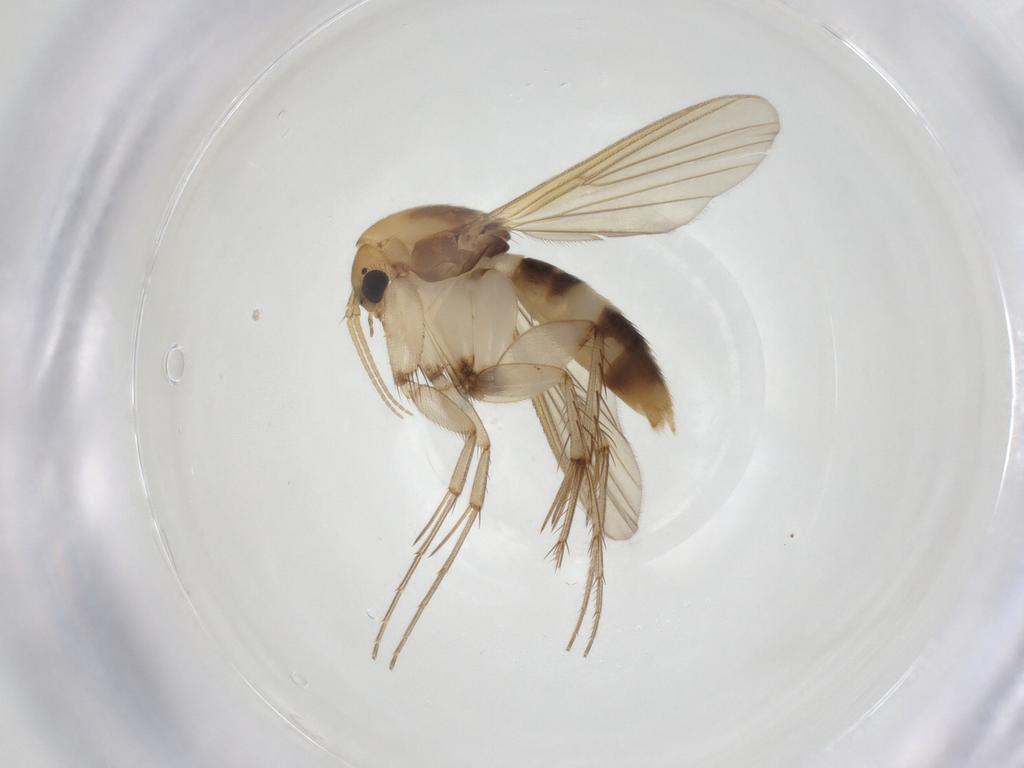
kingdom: Animalia
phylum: Arthropoda
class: Insecta
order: Diptera
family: Mycetophilidae
